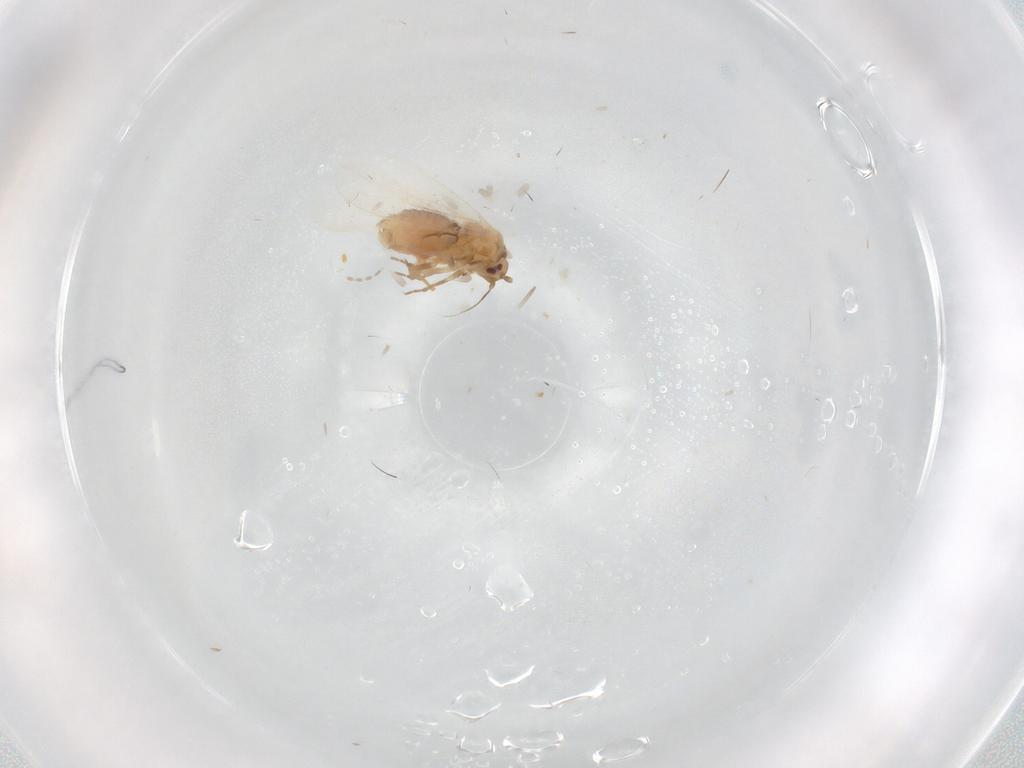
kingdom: Animalia
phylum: Arthropoda
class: Insecta
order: Hemiptera
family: Aleyrodidae
